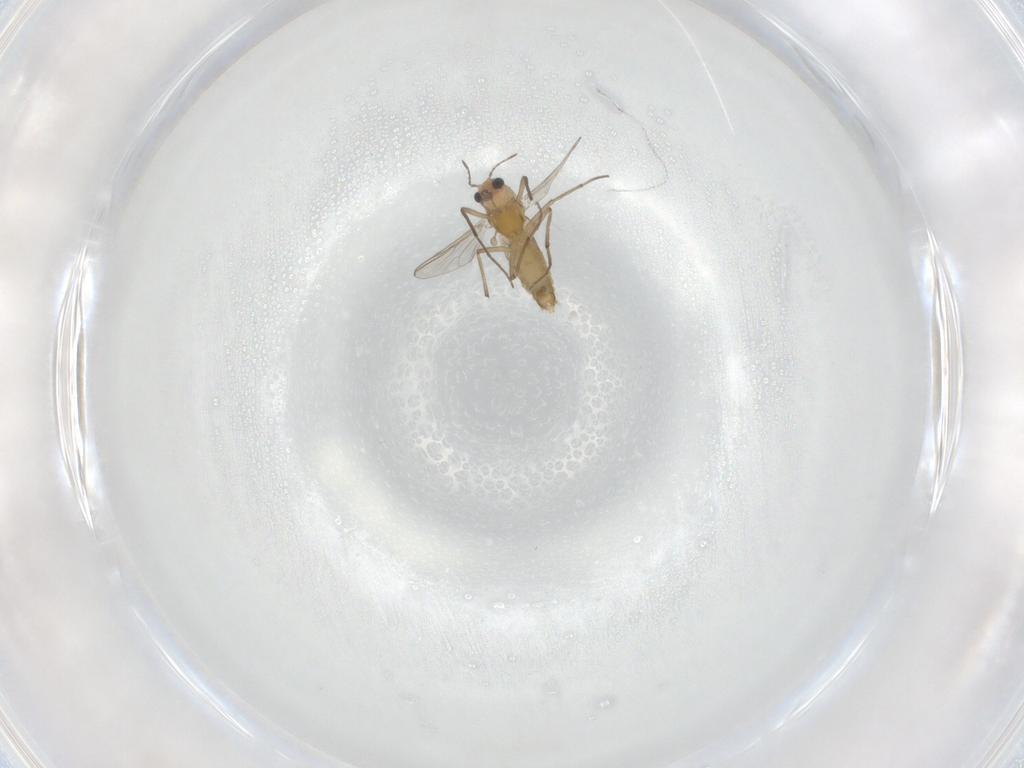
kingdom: Animalia
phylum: Arthropoda
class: Insecta
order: Diptera
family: Chironomidae
